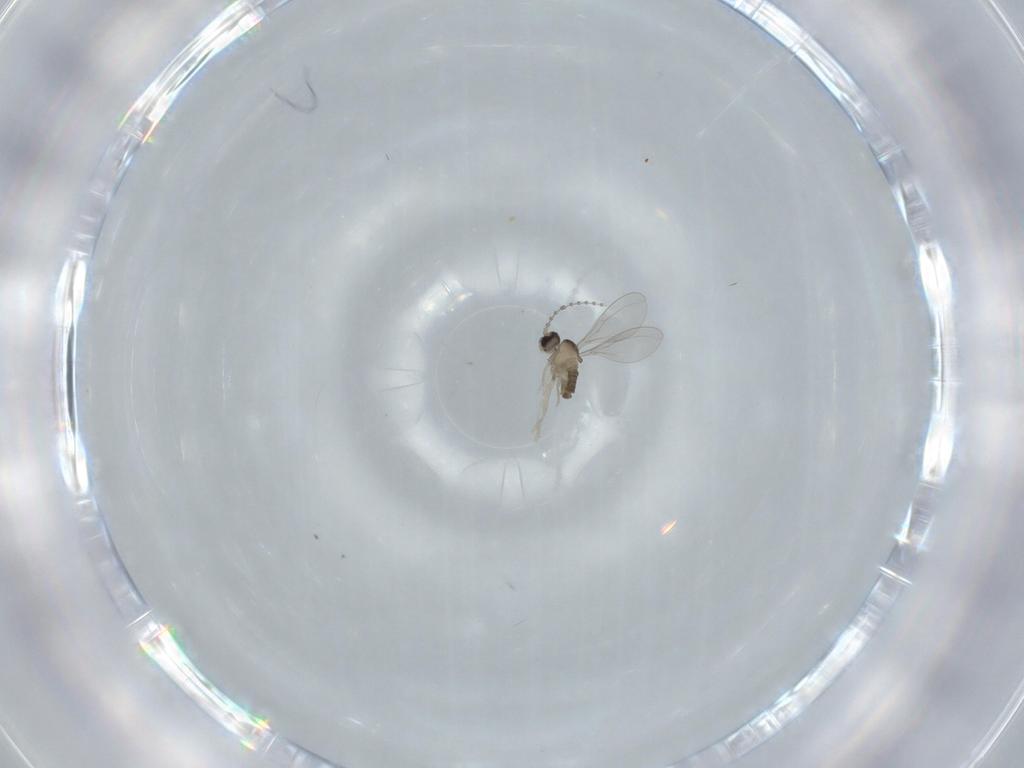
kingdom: Animalia
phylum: Arthropoda
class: Insecta
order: Diptera
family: Cecidomyiidae
